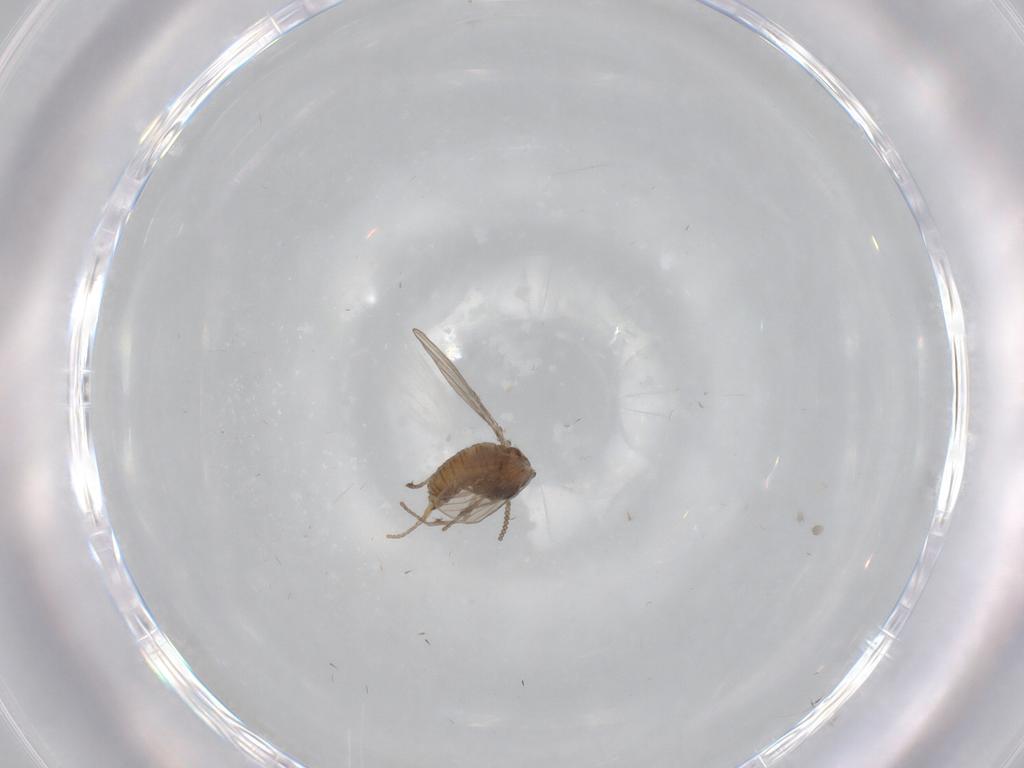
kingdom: Animalia
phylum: Arthropoda
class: Insecta
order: Diptera
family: Psychodidae
